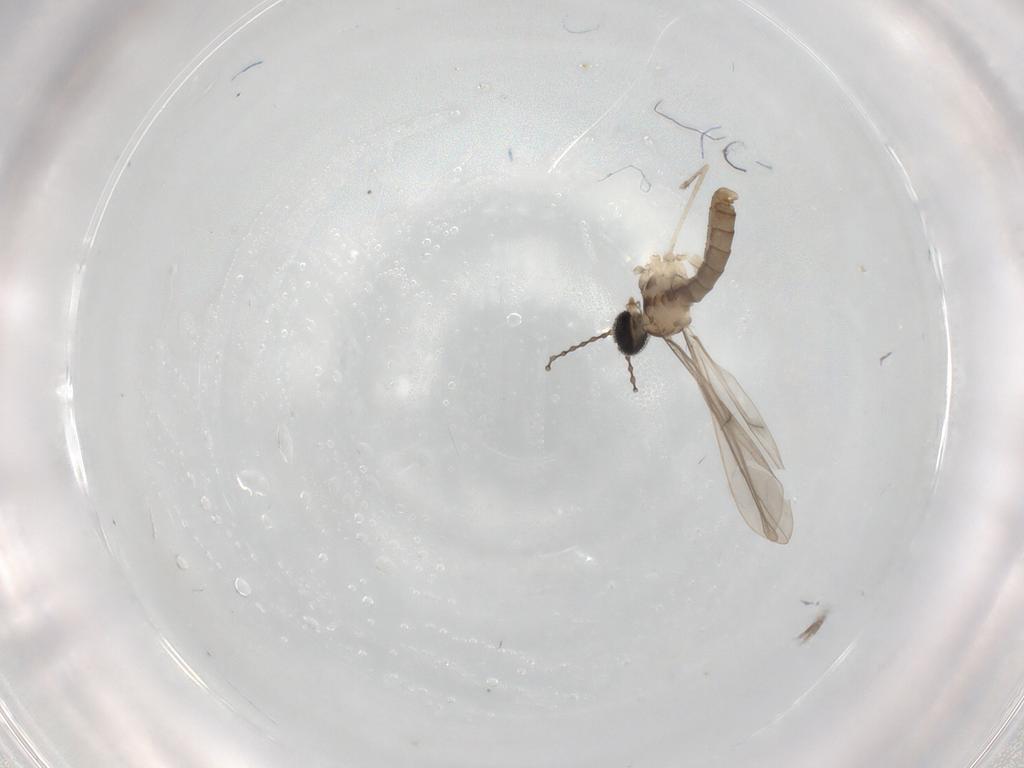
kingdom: Animalia
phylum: Arthropoda
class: Insecta
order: Diptera
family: Cecidomyiidae
